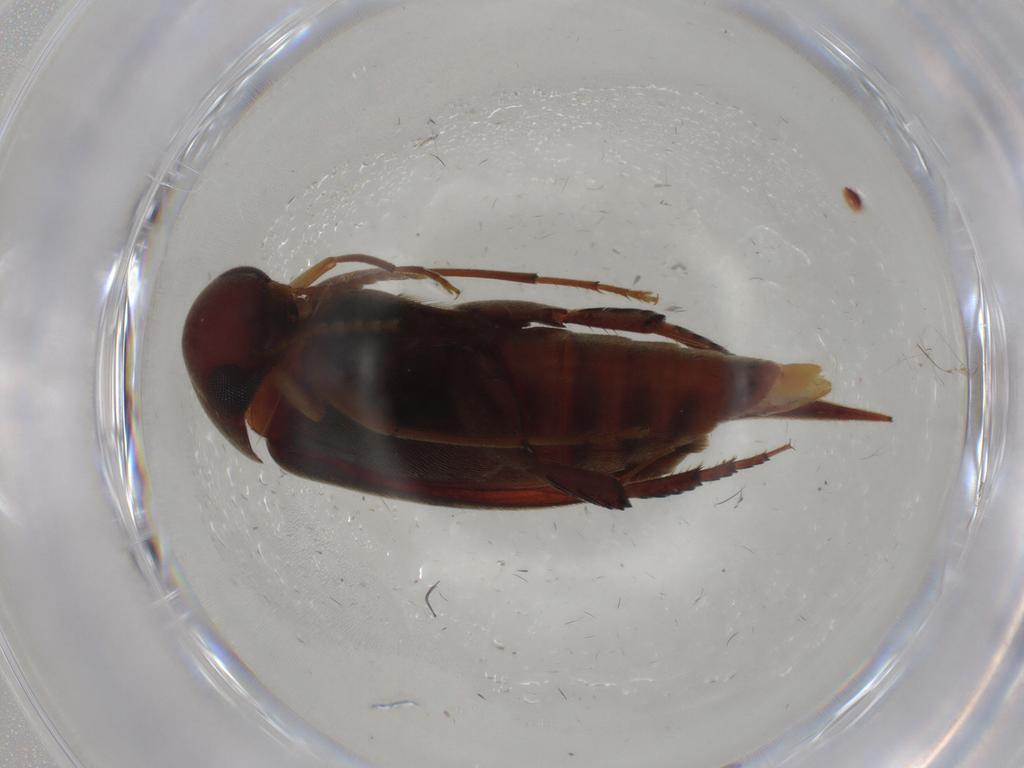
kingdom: Animalia
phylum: Arthropoda
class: Insecta
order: Coleoptera
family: Mordellidae
